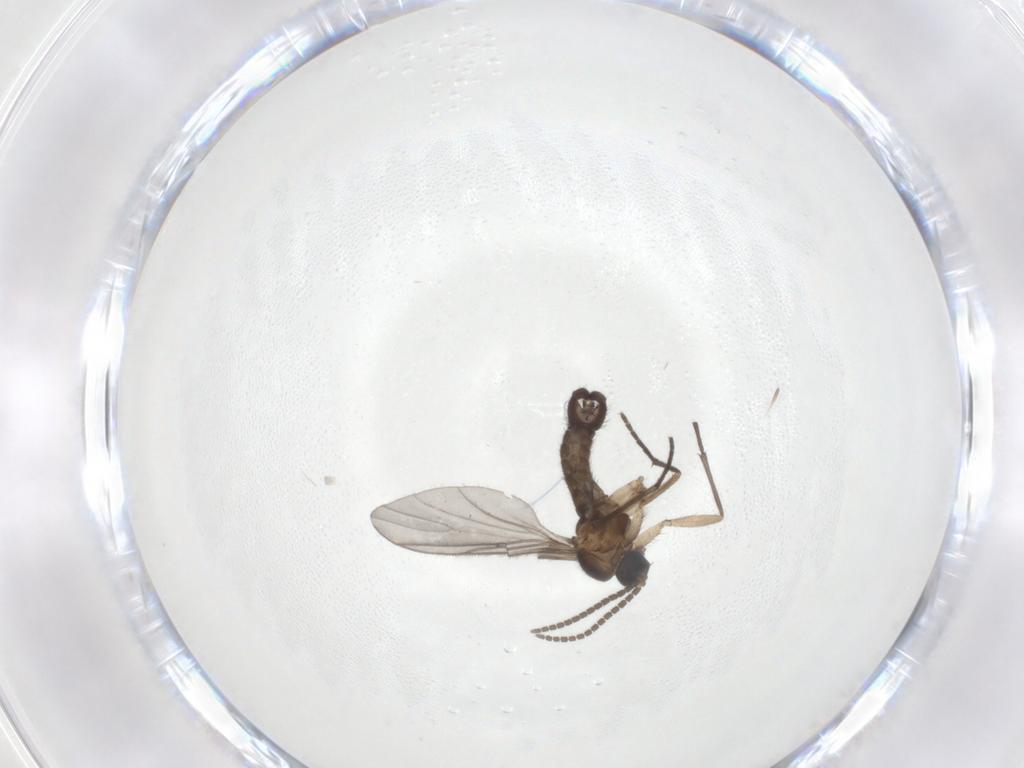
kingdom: Animalia
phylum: Arthropoda
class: Insecta
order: Diptera
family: Sciaridae
